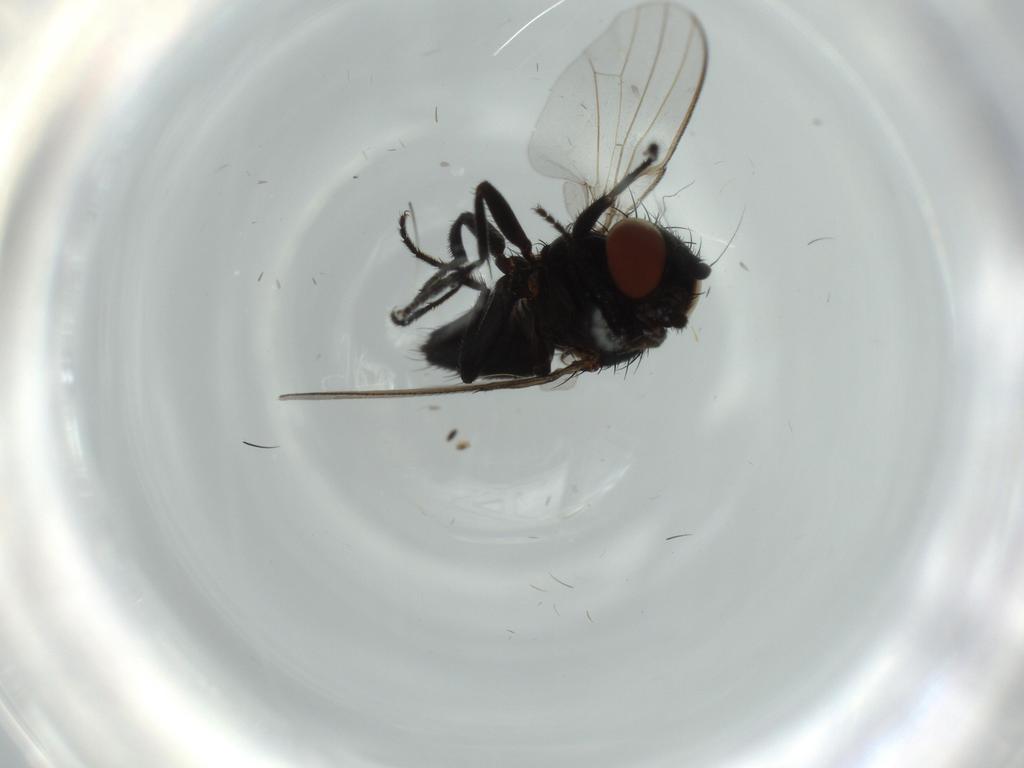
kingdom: Animalia
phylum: Arthropoda
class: Insecta
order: Diptera
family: Milichiidae
